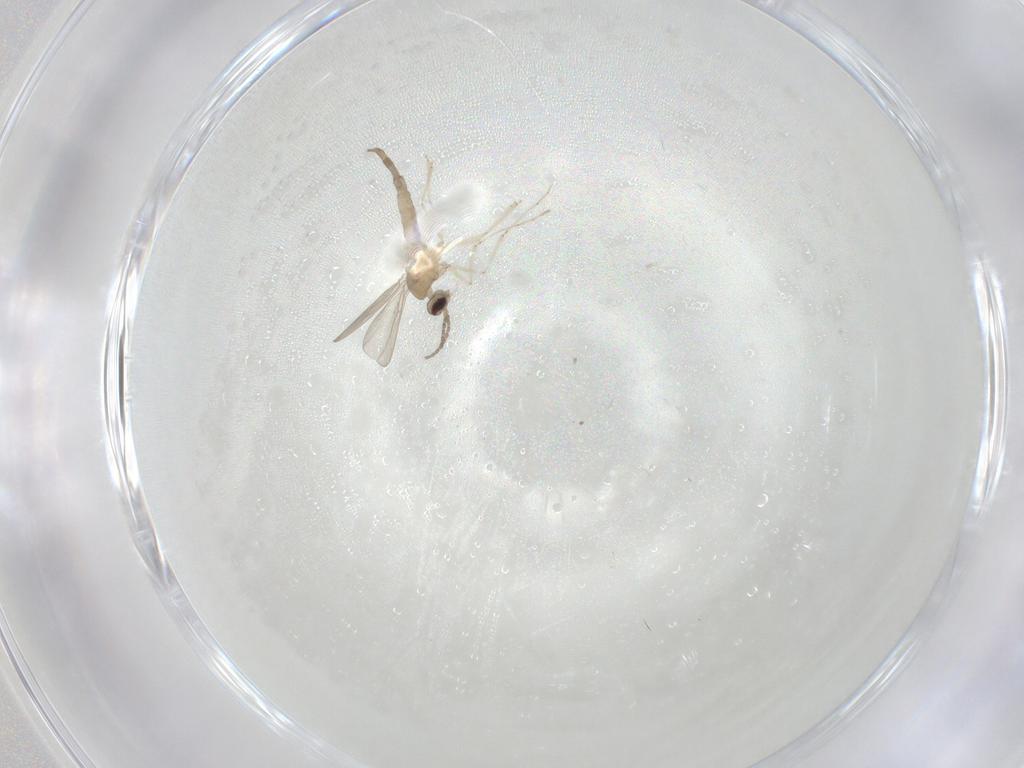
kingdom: Animalia
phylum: Arthropoda
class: Insecta
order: Diptera
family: Cecidomyiidae
